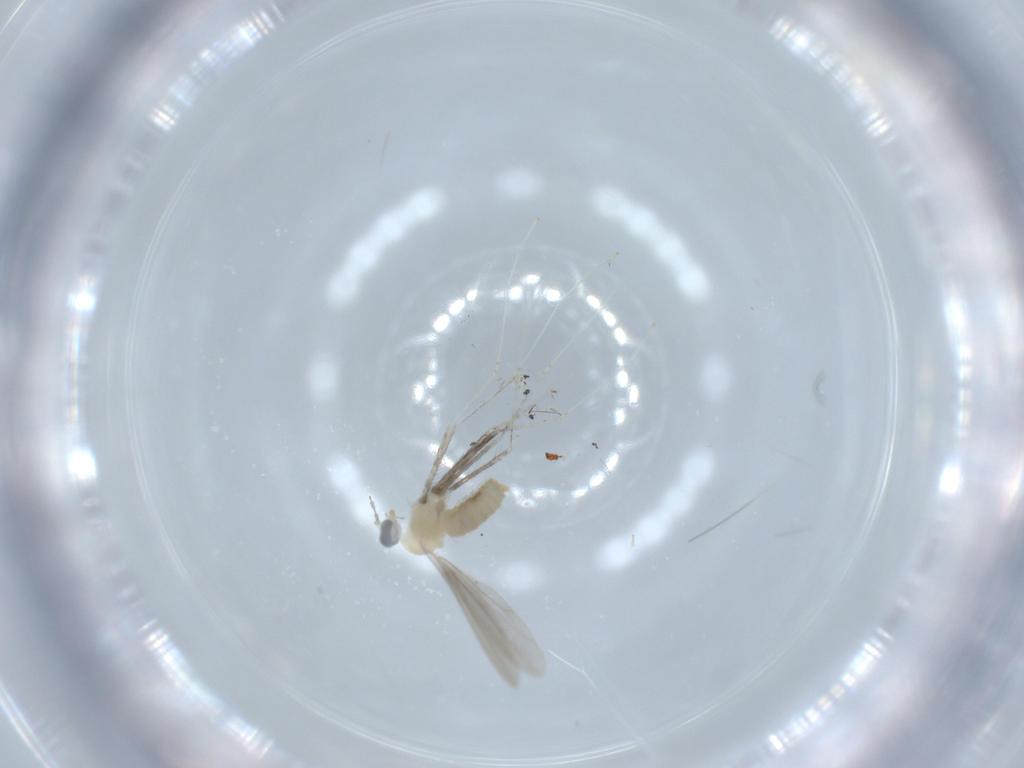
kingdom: Animalia
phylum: Arthropoda
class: Insecta
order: Diptera
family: Cecidomyiidae
